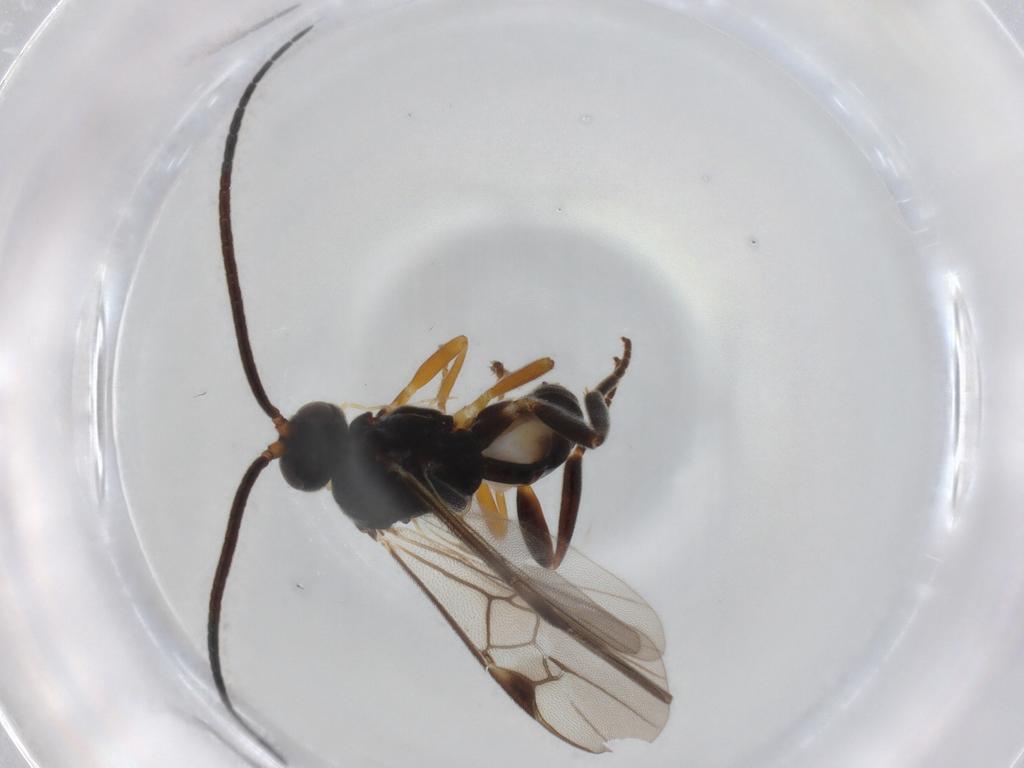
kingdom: Animalia
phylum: Arthropoda
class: Insecta
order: Hymenoptera
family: Braconidae
